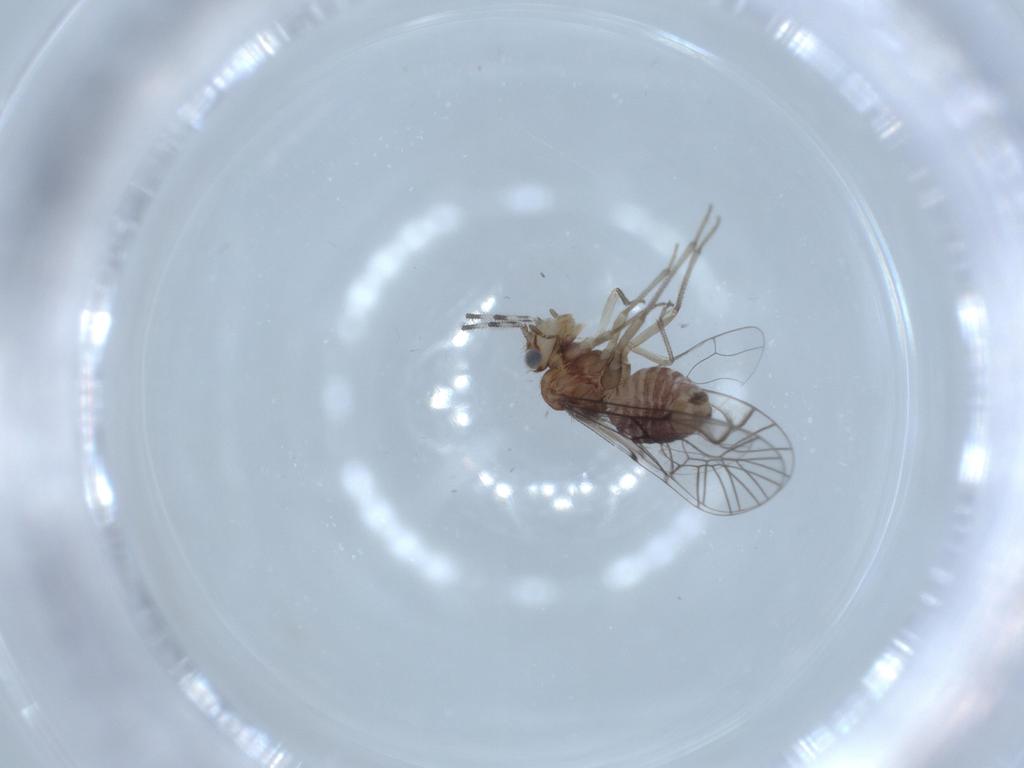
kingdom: Animalia
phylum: Arthropoda
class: Insecta
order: Psocodea
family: Amphipsocidae
